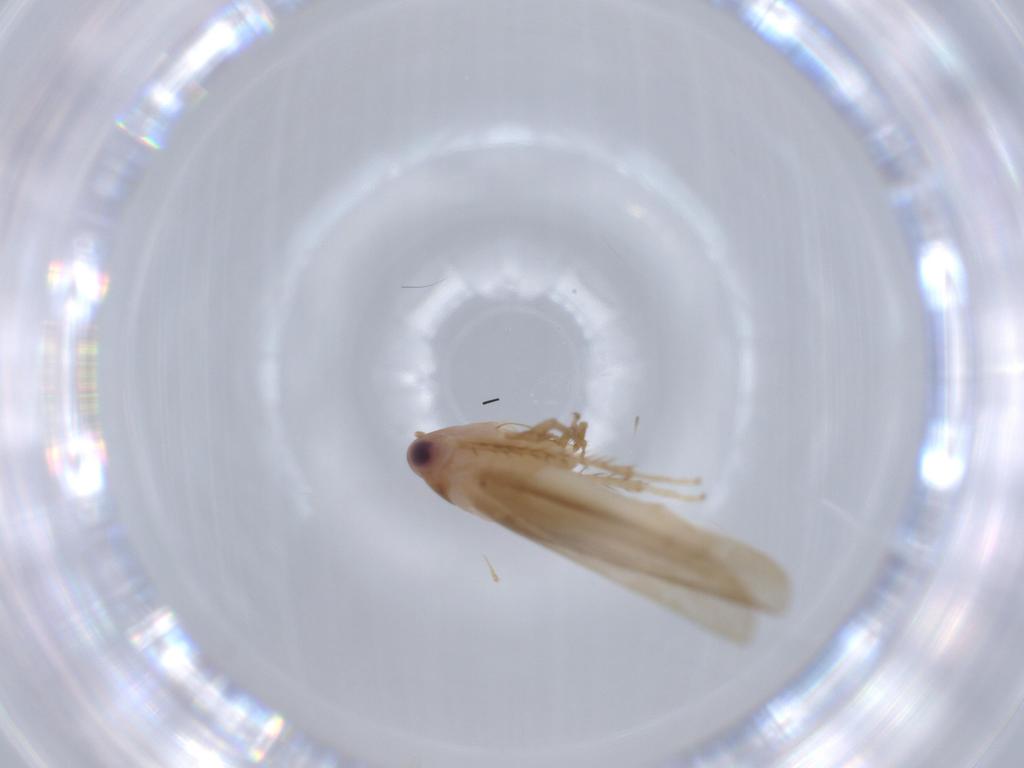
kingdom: Animalia
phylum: Arthropoda
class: Insecta
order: Hemiptera
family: Cicadellidae
